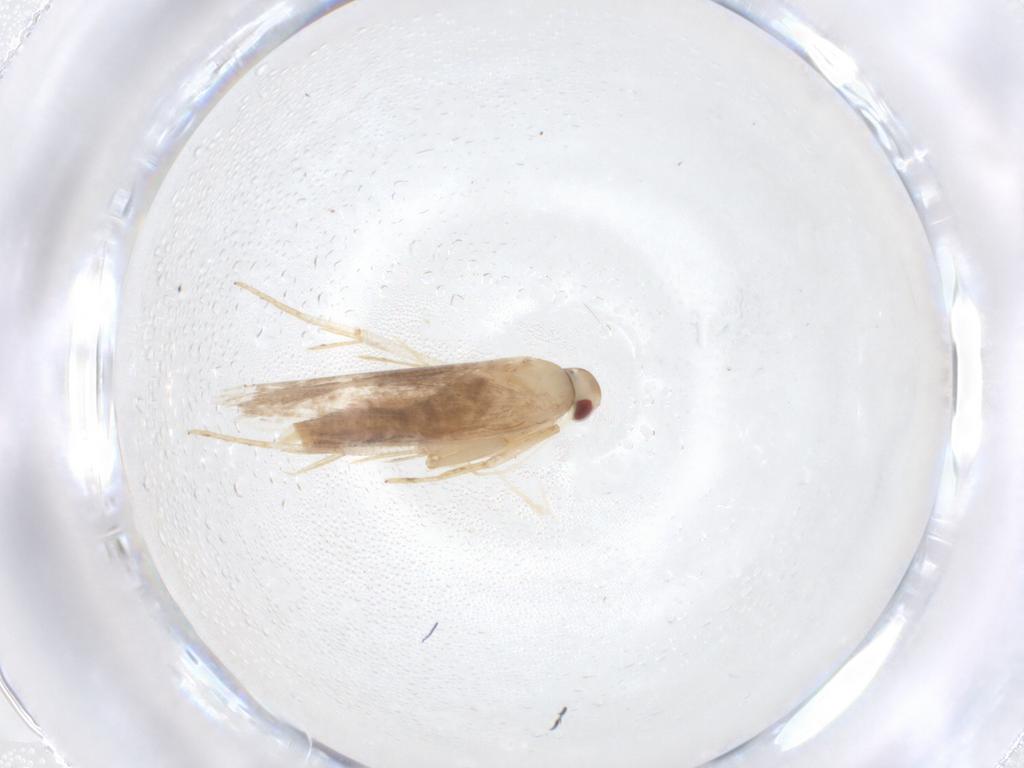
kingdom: Animalia
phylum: Arthropoda
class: Insecta
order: Lepidoptera
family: Cosmopterigidae
